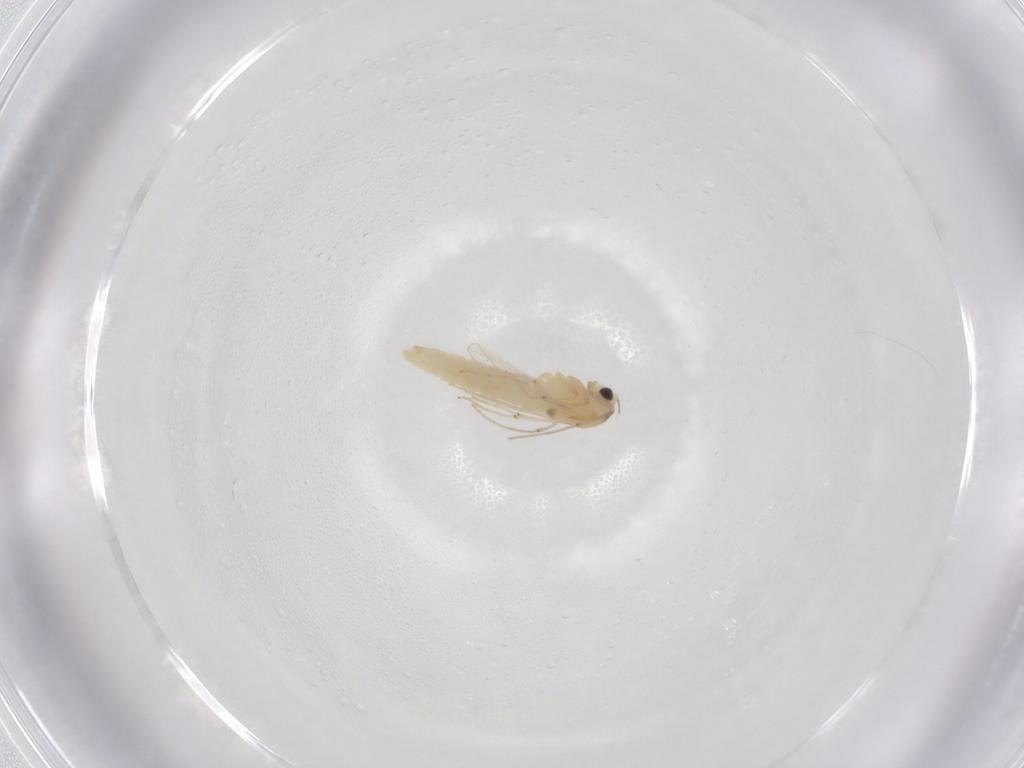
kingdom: Animalia
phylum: Arthropoda
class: Insecta
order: Diptera
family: Chironomidae
